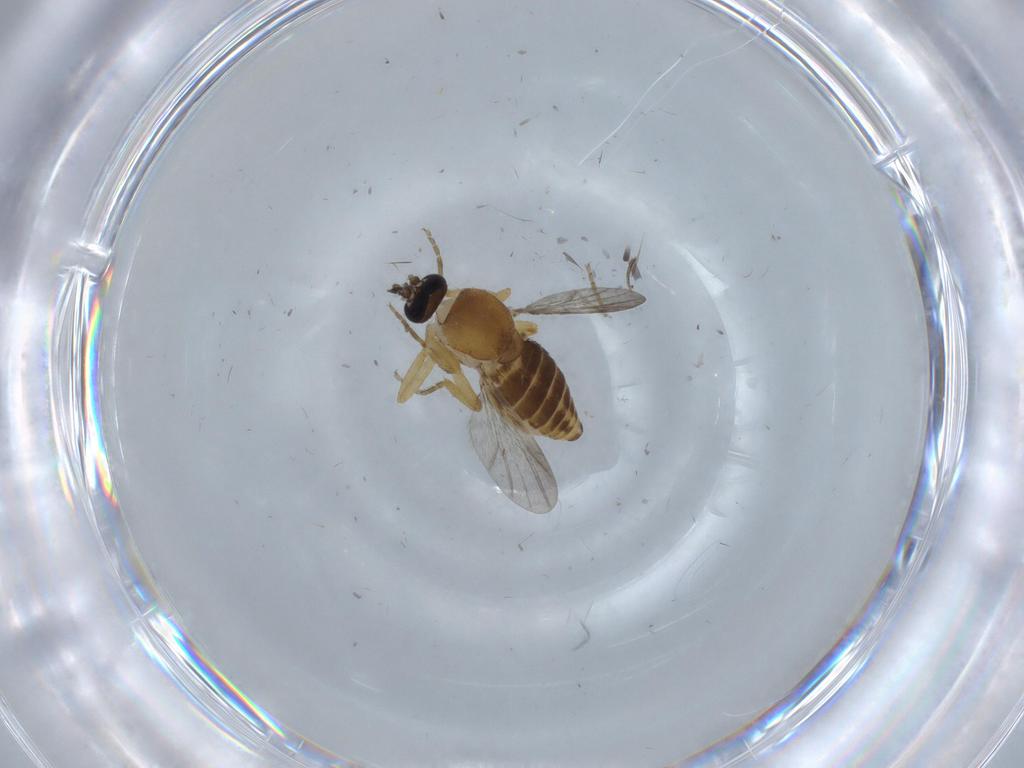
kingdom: Animalia
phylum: Arthropoda
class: Insecta
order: Diptera
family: Ceratopogonidae
